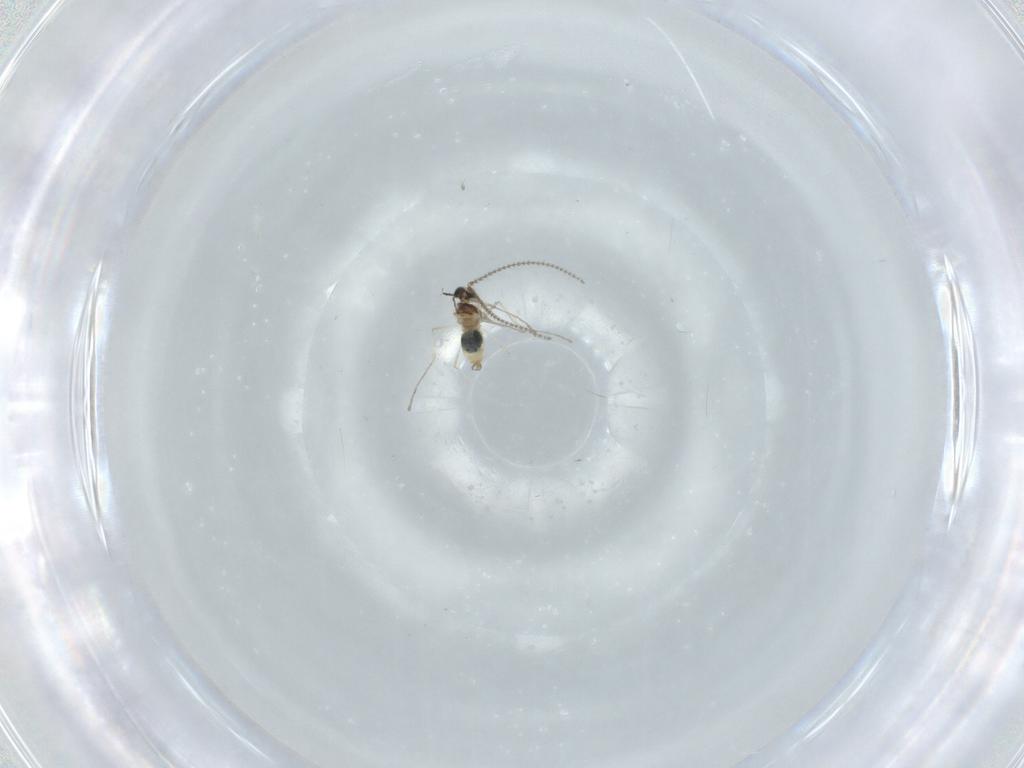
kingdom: Animalia
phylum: Arthropoda
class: Insecta
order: Diptera
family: Cecidomyiidae
